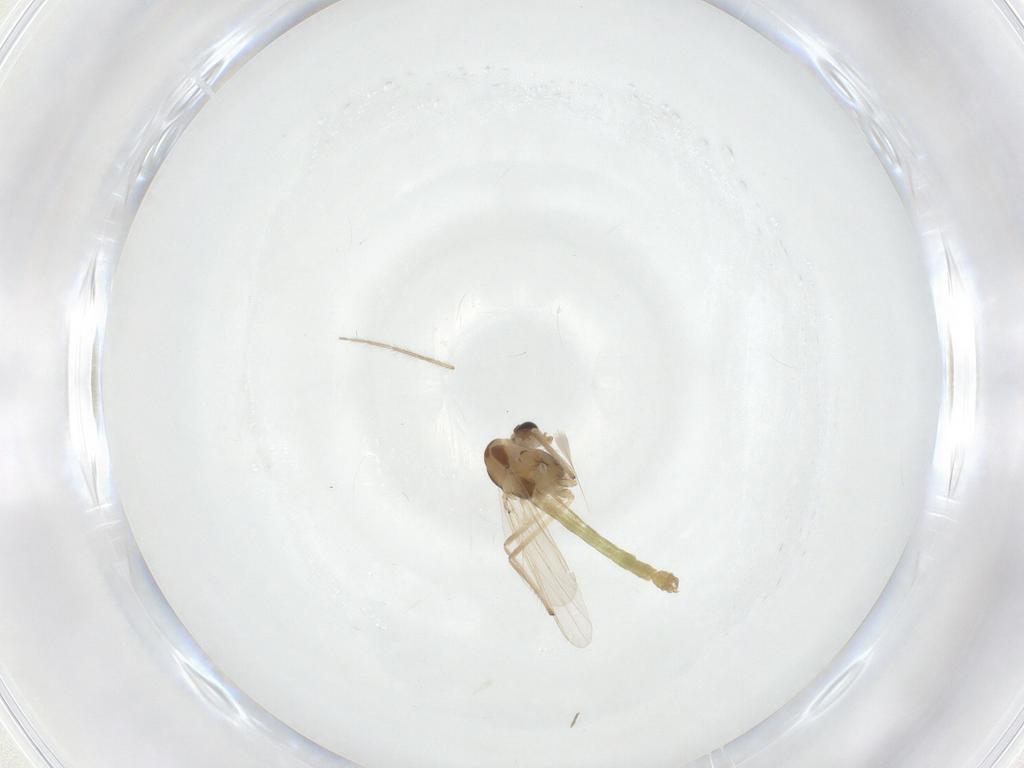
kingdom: Animalia
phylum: Arthropoda
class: Insecta
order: Diptera
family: Chironomidae
